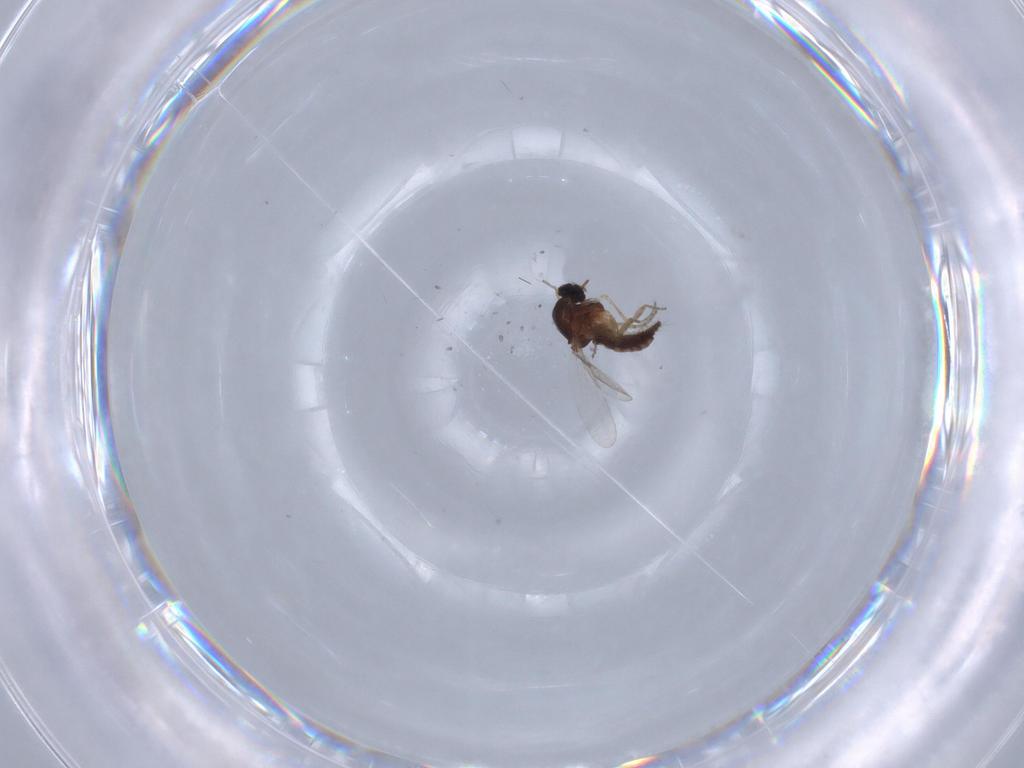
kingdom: Animalia
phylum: Arthropoda
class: Insecta
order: Diptera
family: Ceratopogonidae
